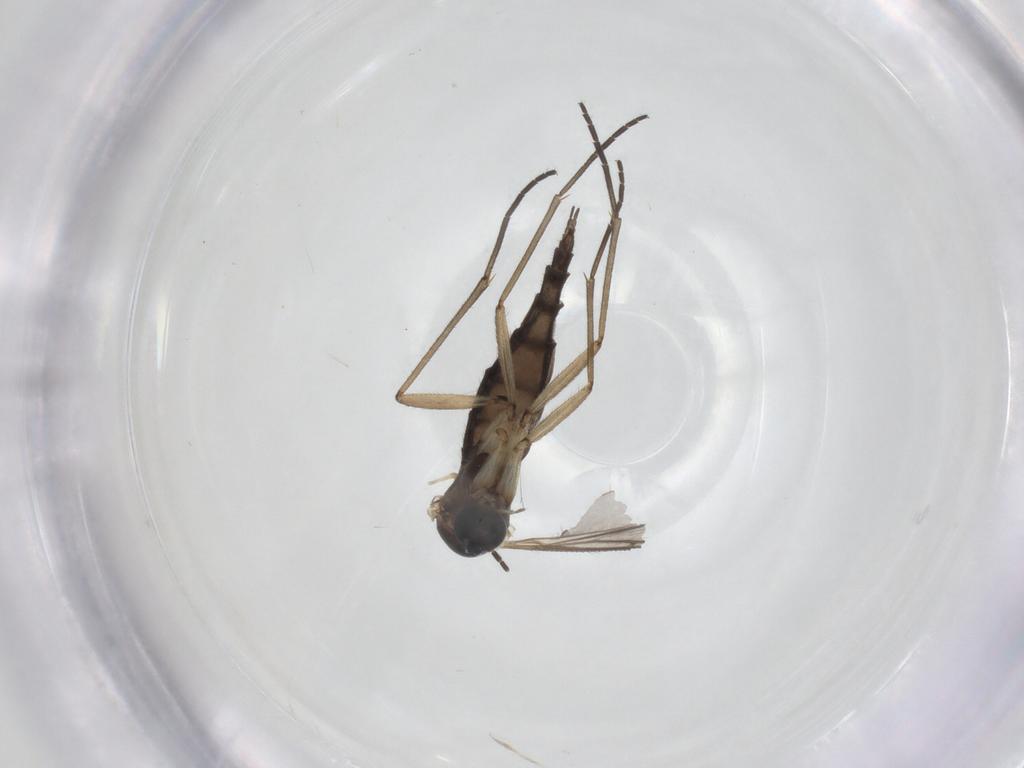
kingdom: Animalia
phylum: Arthropoda
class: Insecta
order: Diptera
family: Sciaridae
